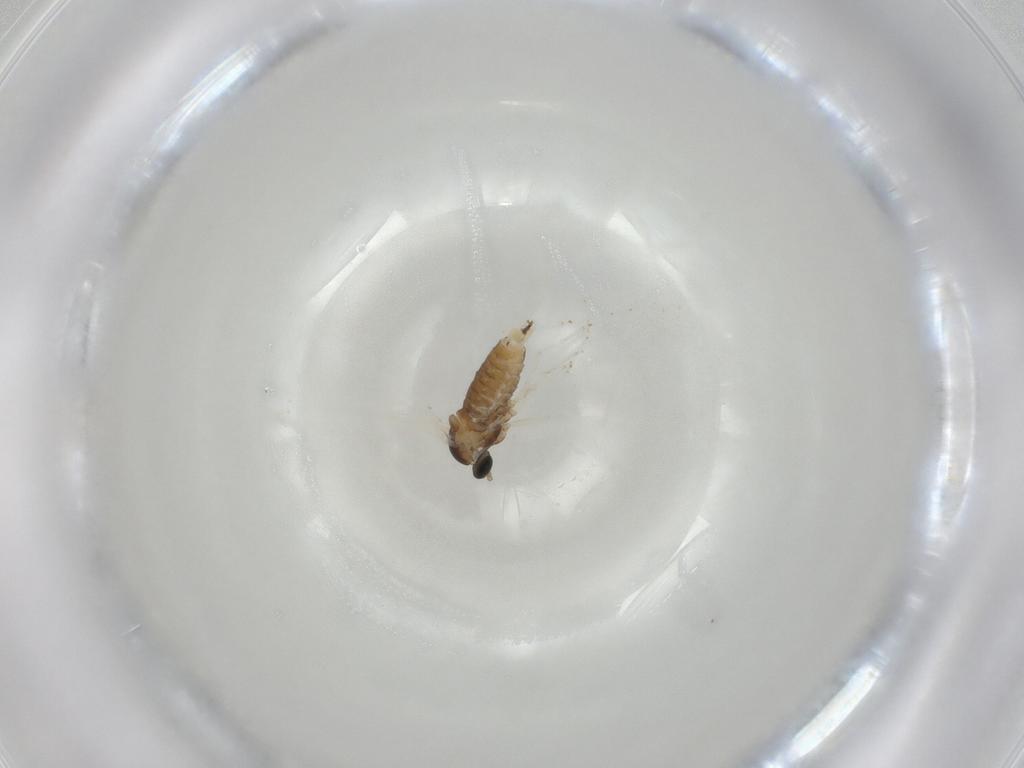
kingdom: Animalia
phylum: Arthropoda
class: Insecta
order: Diptera
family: Cecidomyiidae
